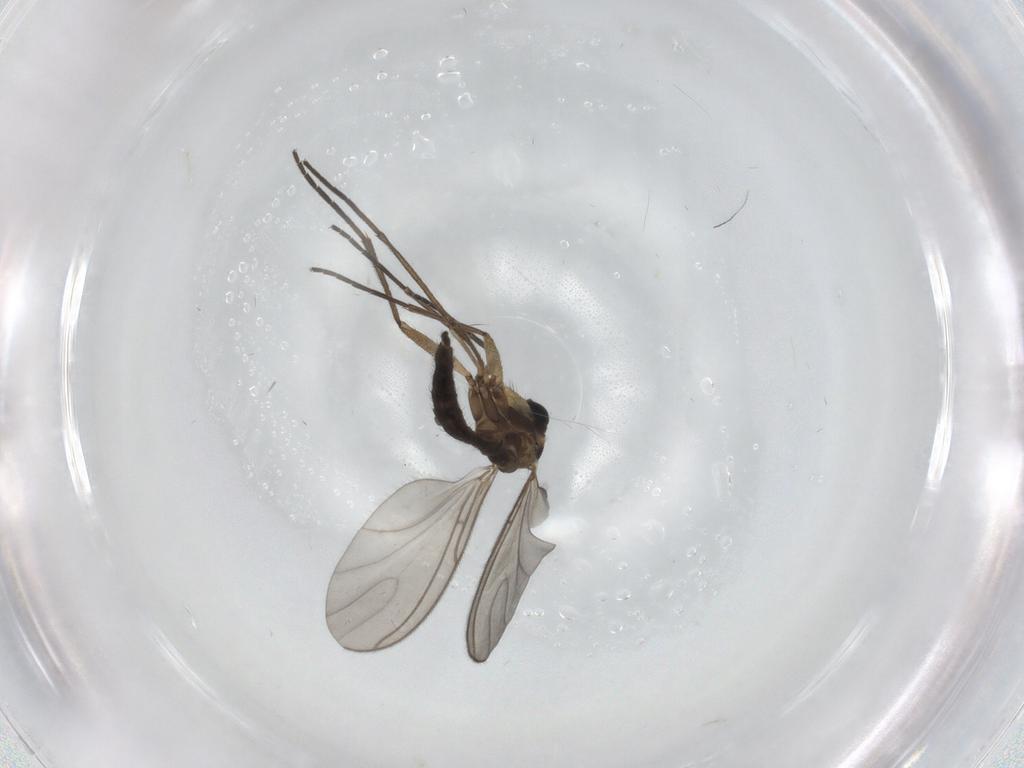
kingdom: Animalia
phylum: Arthropoda
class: Insecta
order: Diptera
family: Sciaridae
